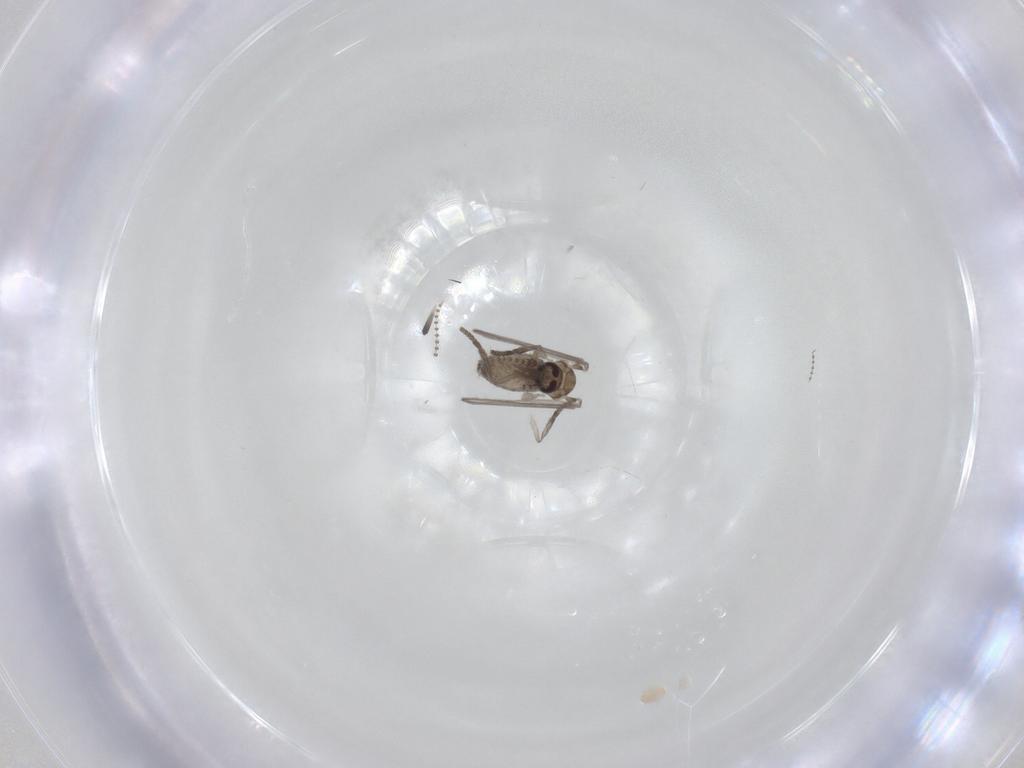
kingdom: Animalia
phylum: Arthropoda
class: Insecta
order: Diptera
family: Psychodidae
